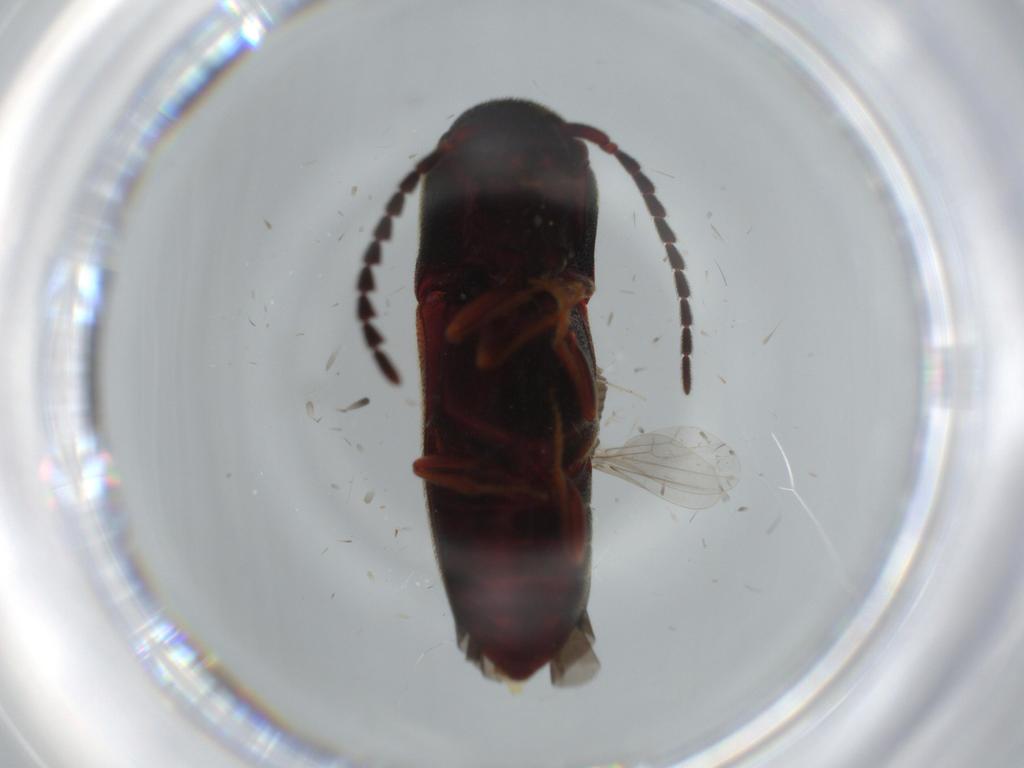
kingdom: Animalia
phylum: Arthropoda
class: Insecta
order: Coleoptera
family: Eucnemidae
